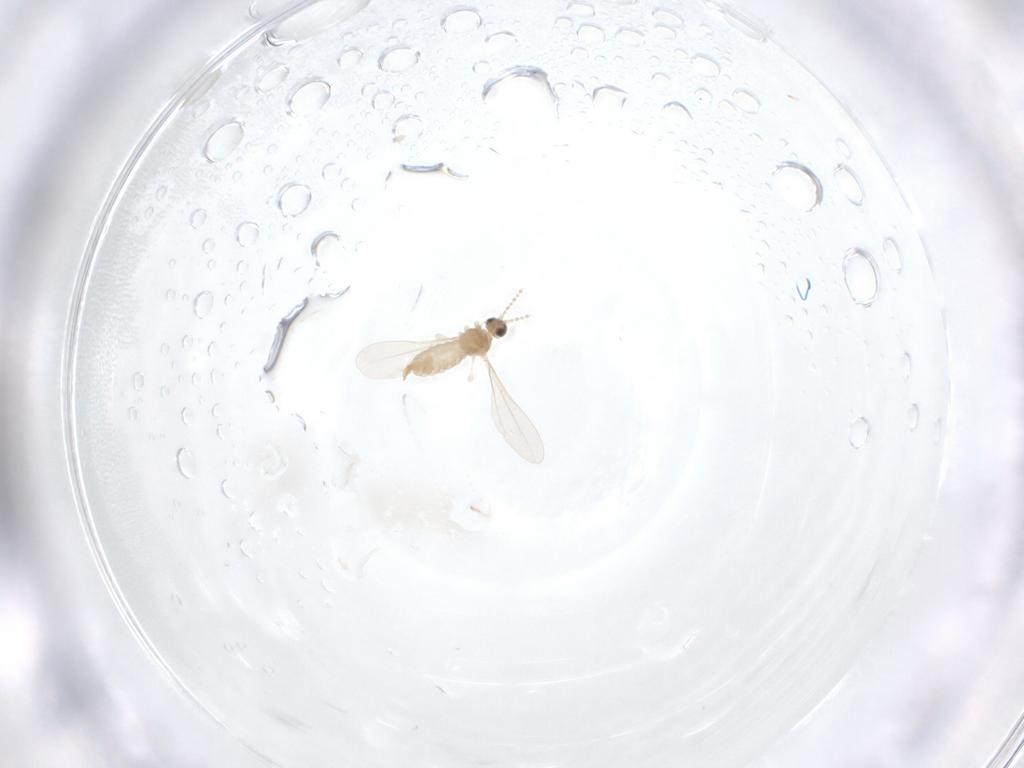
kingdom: Animalia
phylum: Arthropoda
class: Insecta
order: Diptera
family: Cecidomyiidae
